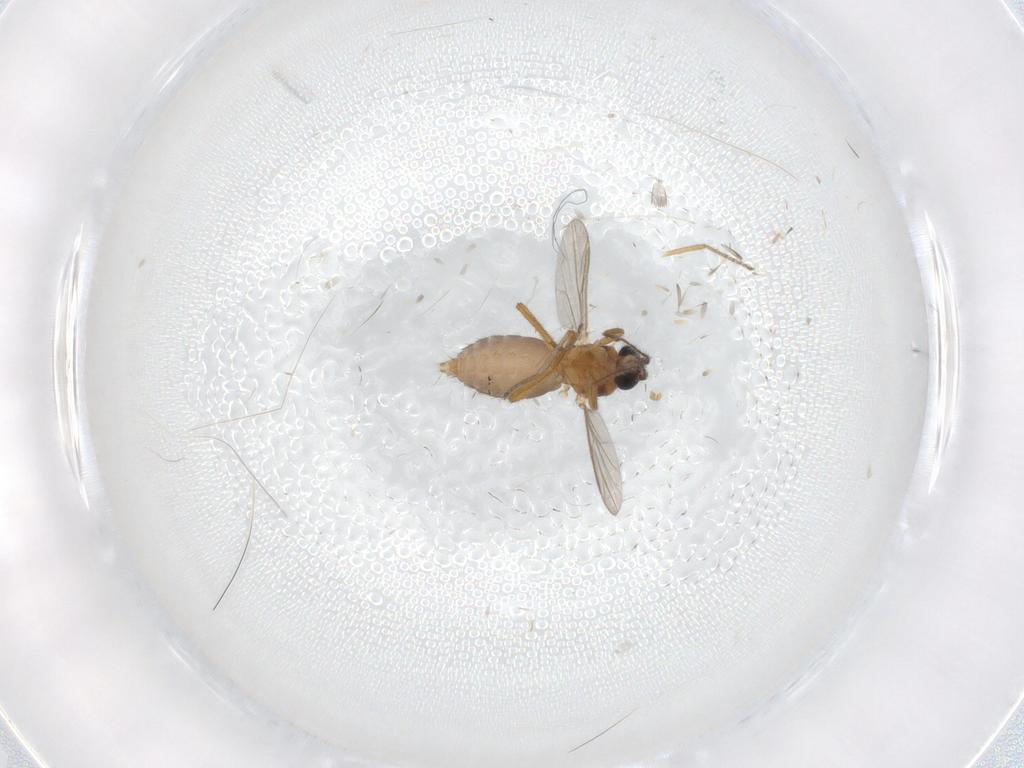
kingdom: Animalia
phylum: Arthropoda
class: Insecta
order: Diptera
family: Ceratopogonidae
